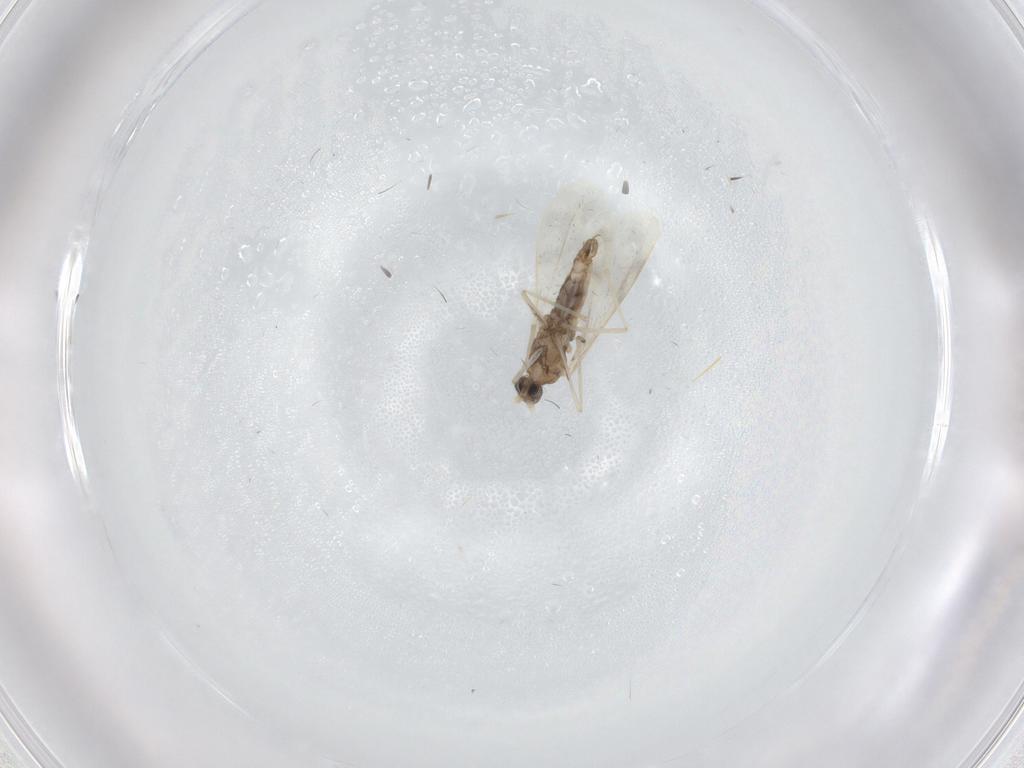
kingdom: Animalia
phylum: Arthropoda
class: Insecta
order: Diptera
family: Cecidomyiidae
